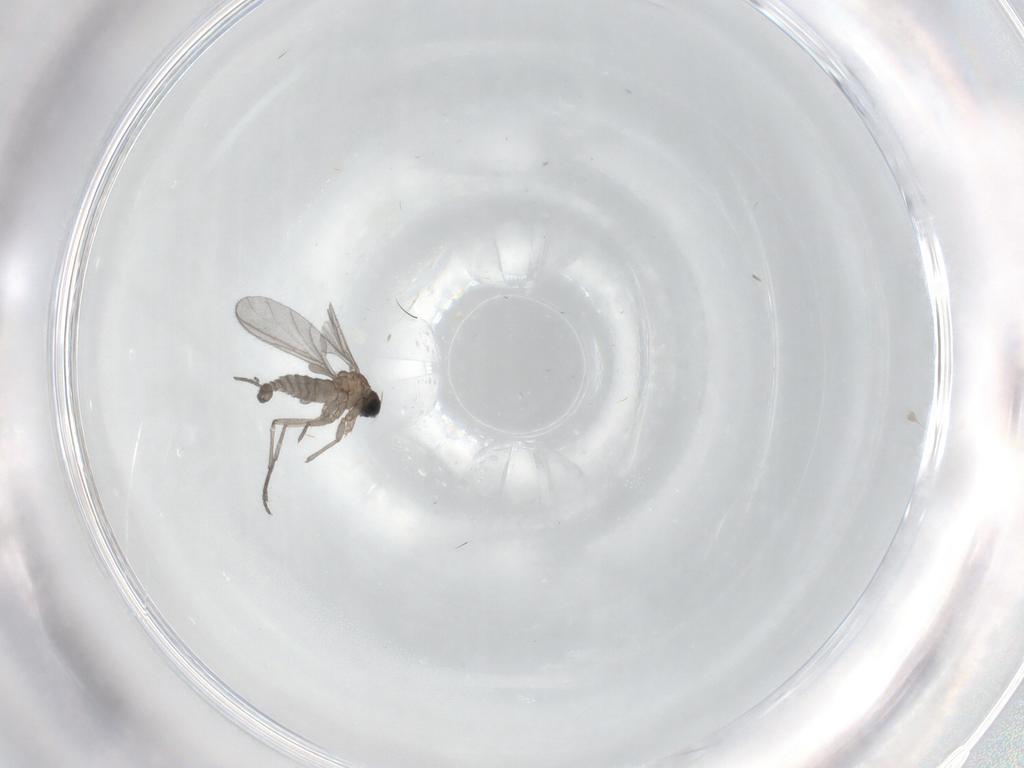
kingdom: Animalia
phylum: Arthropoda
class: Insecta
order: Diptera
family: Sciaridae
